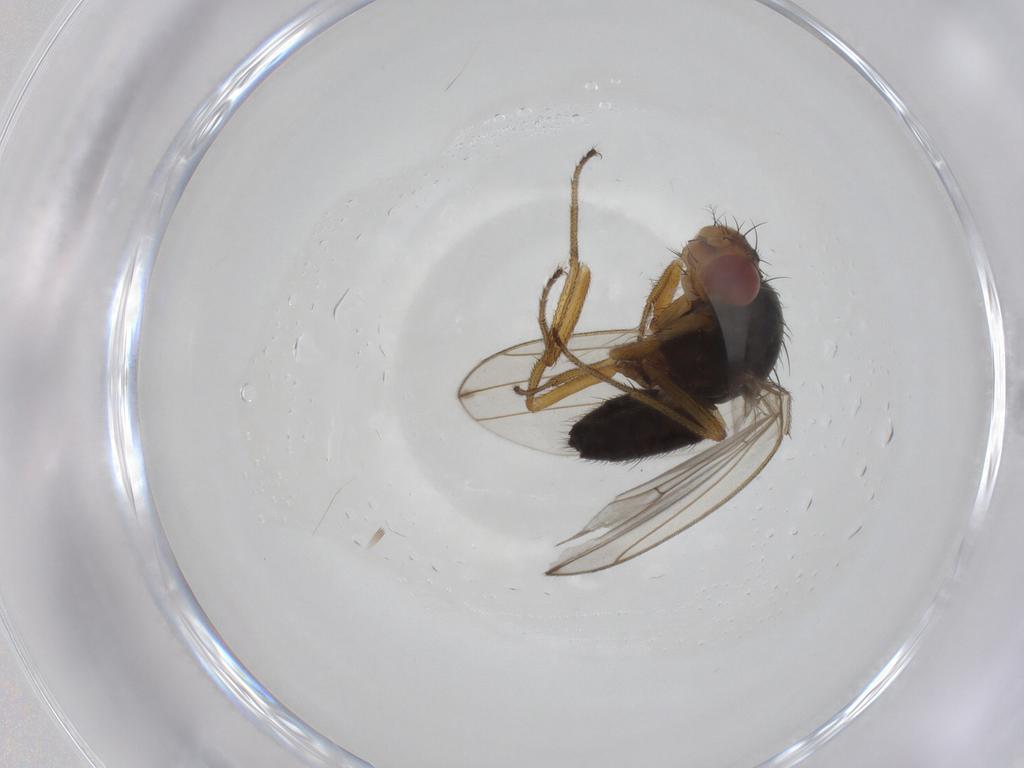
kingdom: Animalia
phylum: Arthropoda
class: Insecta
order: Diptera
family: Drosophilidae
